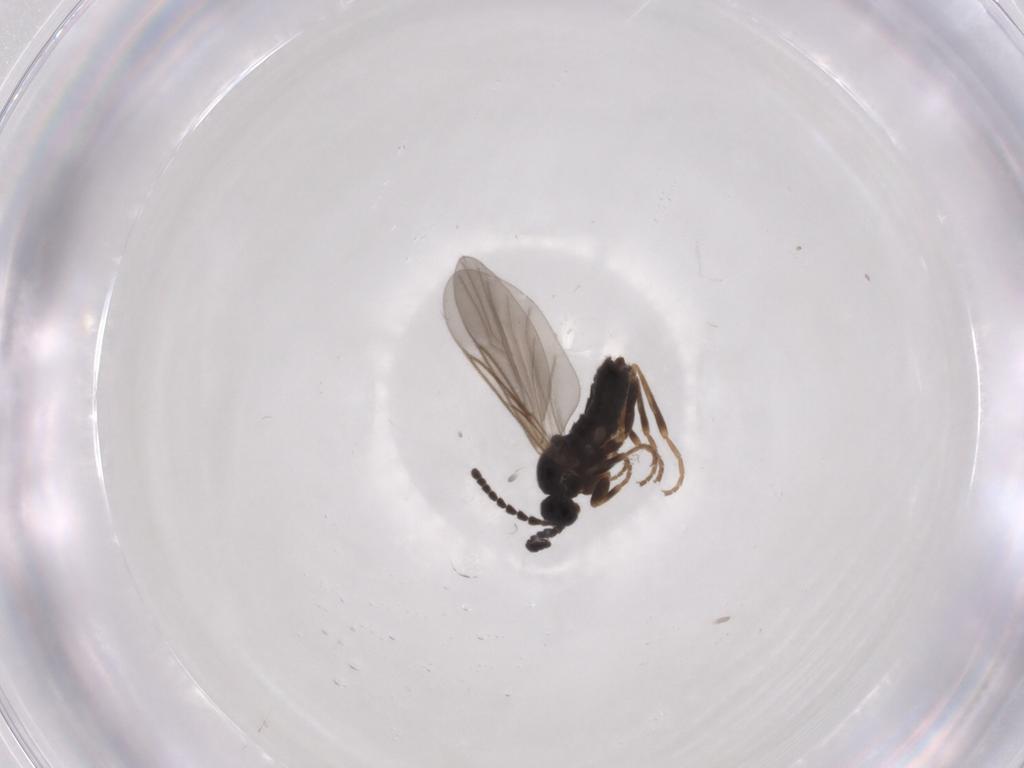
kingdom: Animalia
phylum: Arthropoda
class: Insecta
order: Diptera
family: Scatopsidae
